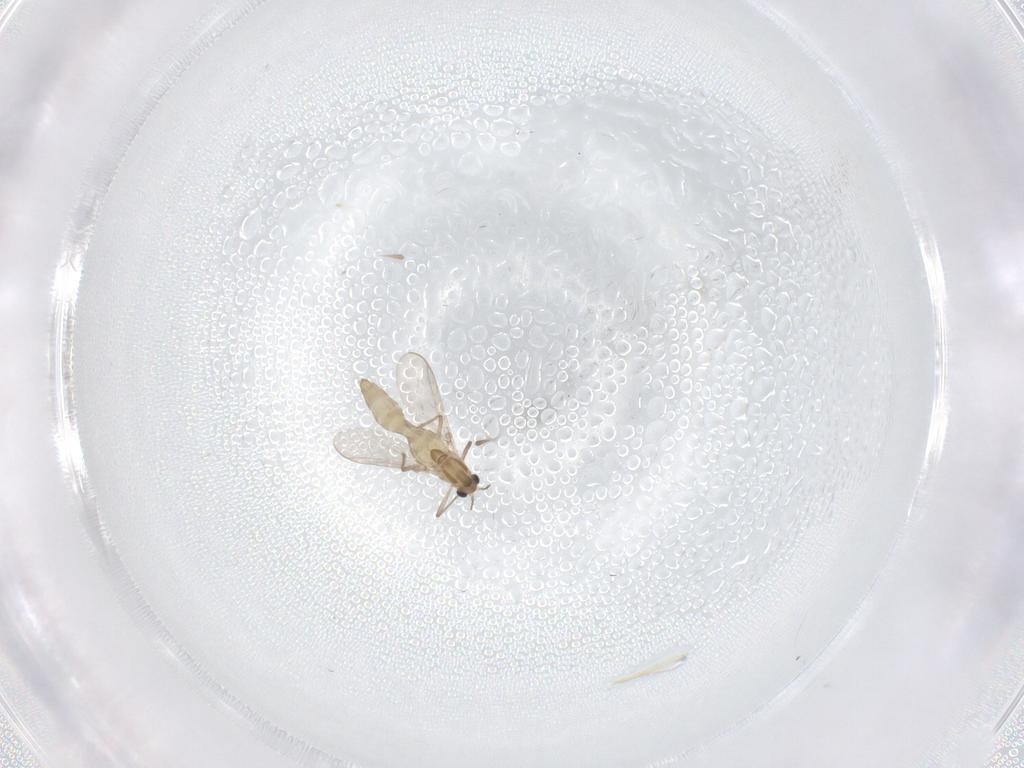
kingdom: Animalia
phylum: Arthropoda
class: Insecta
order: Diptera
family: Chironomidae
